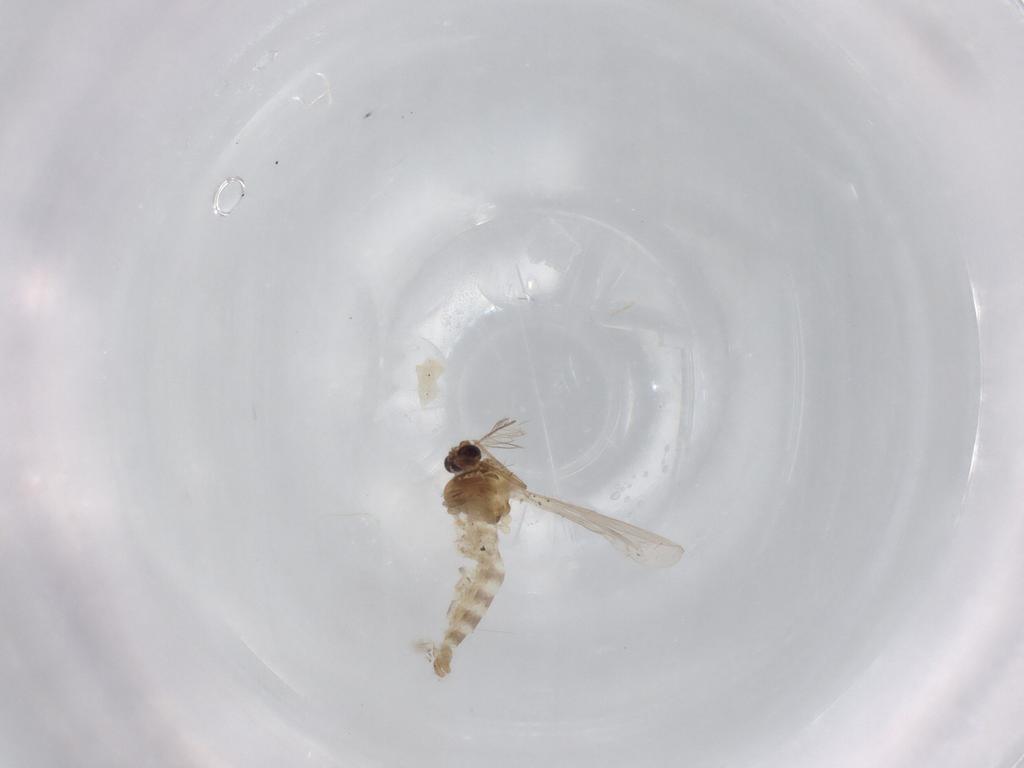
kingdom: Animalia
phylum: Arthropoda
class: Insecta
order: Diptera
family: Chironomidae
